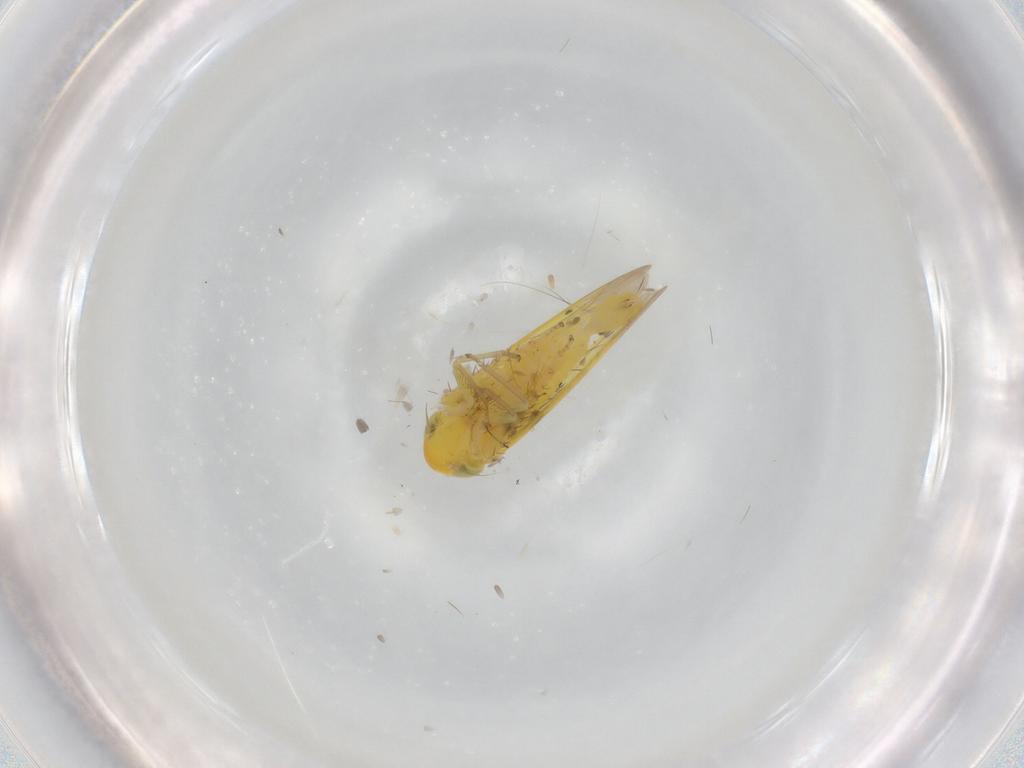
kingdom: Animalia
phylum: Arthropoda
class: Insecta
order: Hemiptera
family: Cicadellidae
